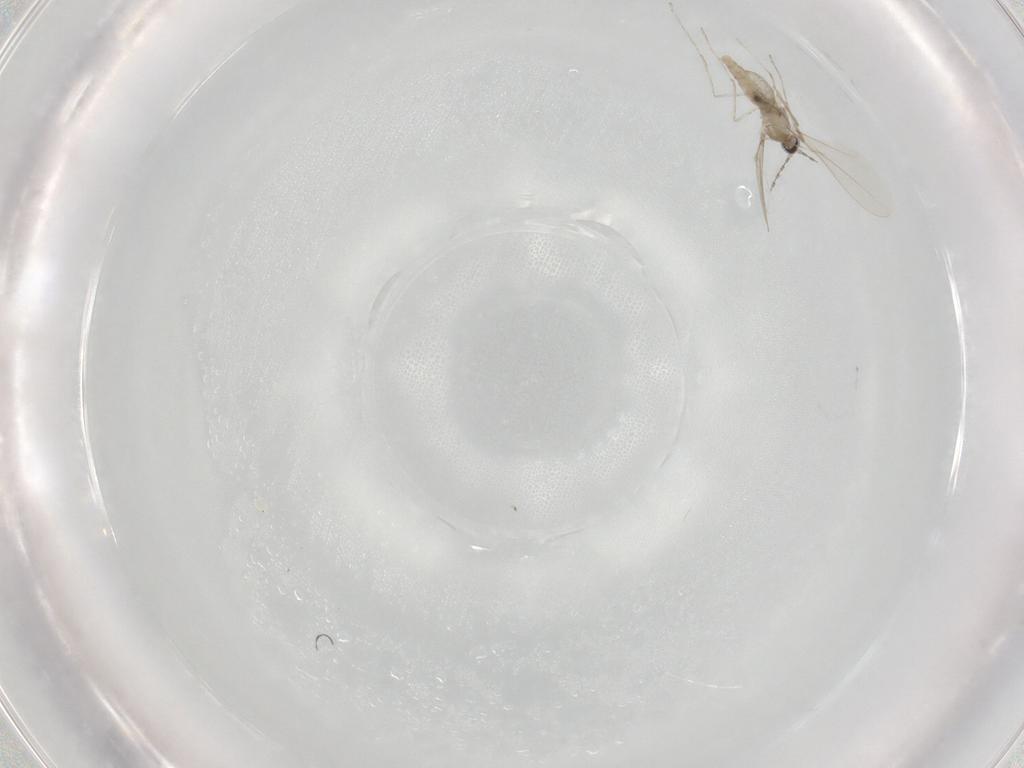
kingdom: Animalia
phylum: Arthropoda
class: Insecta
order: Diptera
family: Cecidomyiidae
